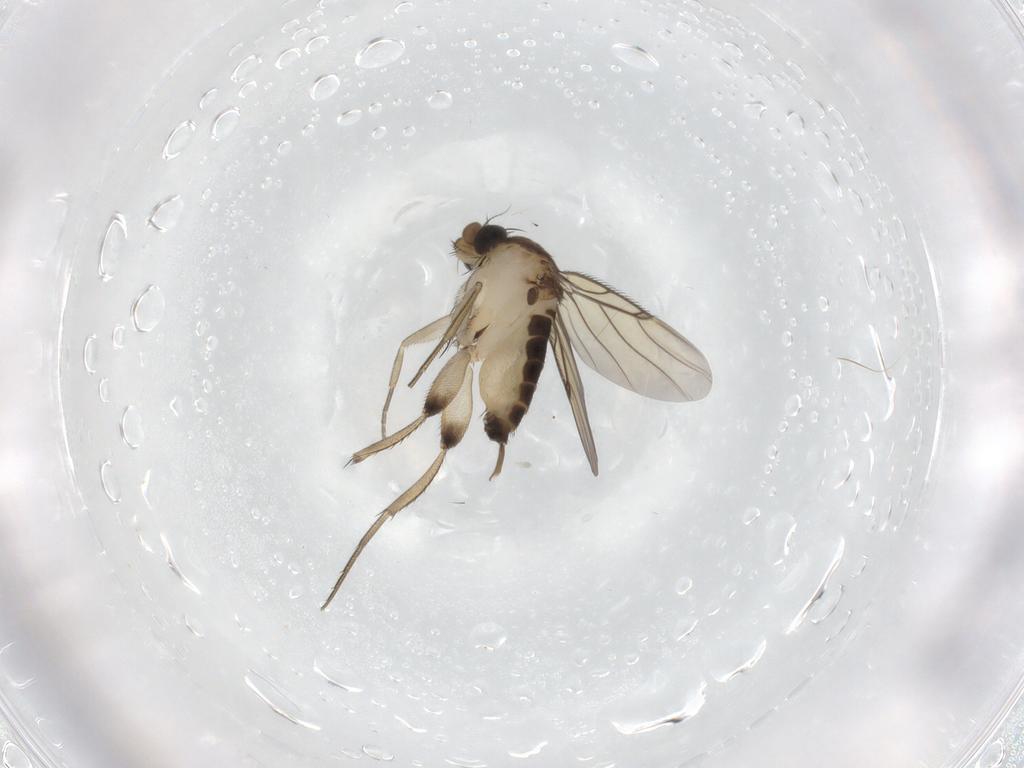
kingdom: Animalia
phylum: Arthropoda
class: Insecta
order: Diptera
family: Phoridae
